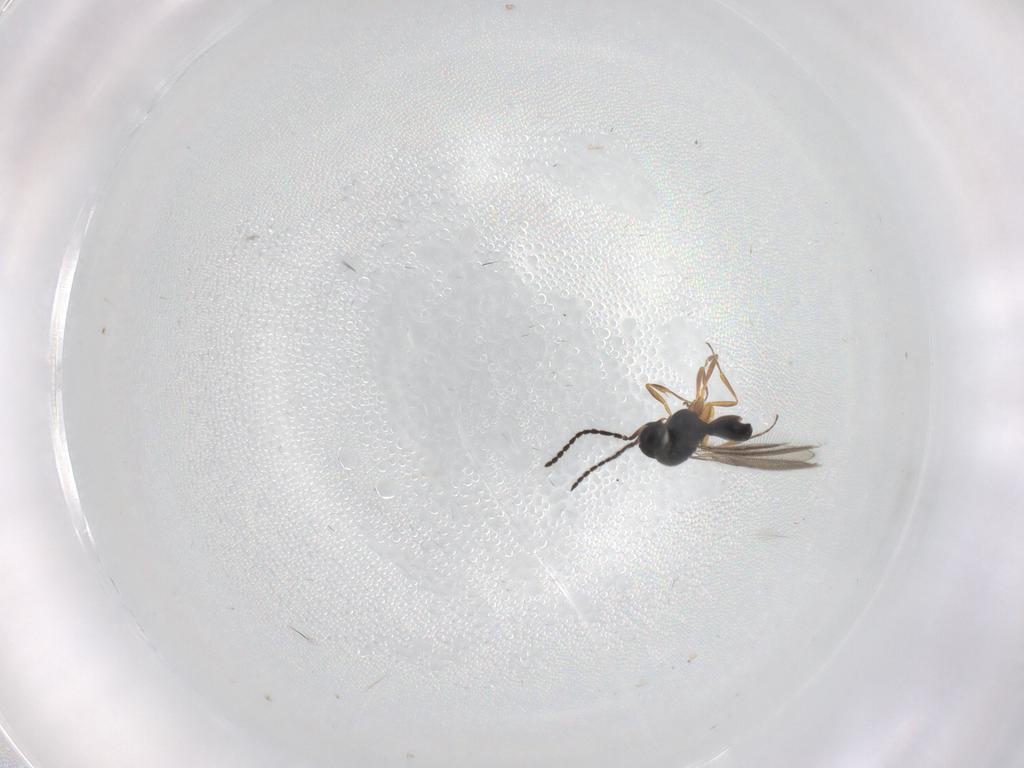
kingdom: Animalia
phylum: Arthropoda
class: Insecta
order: Hymenoptera
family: Scelionidae
